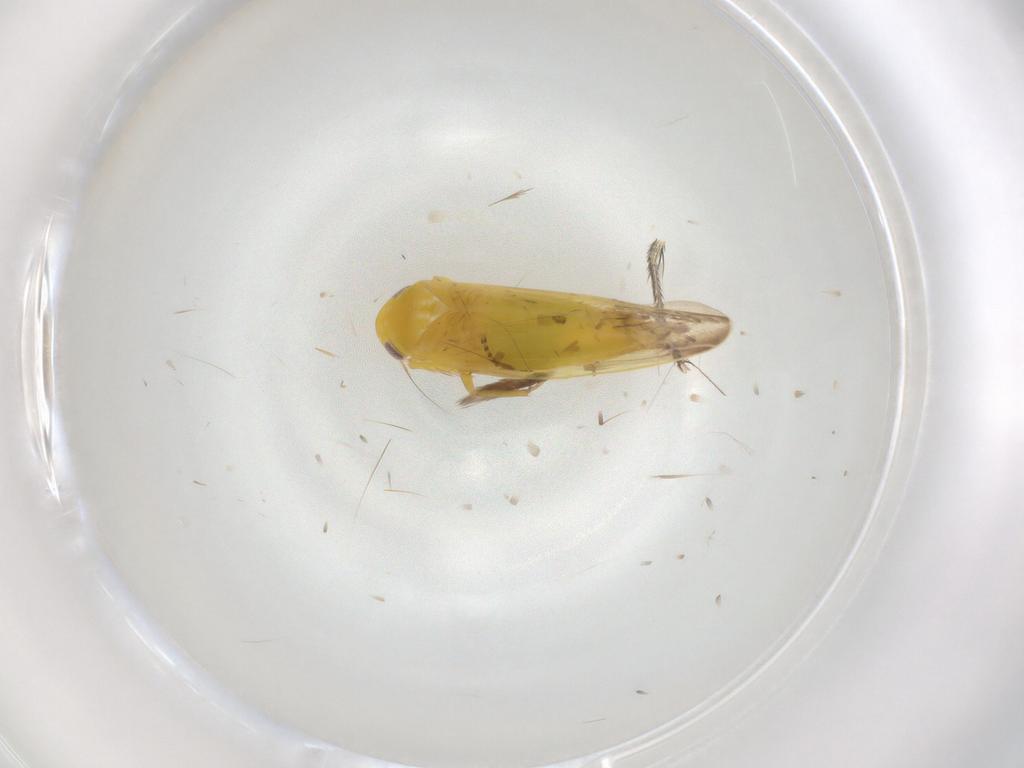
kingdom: Animalia
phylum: Arthropoda
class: Insecta
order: Hemiptera
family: Cicadellidae
